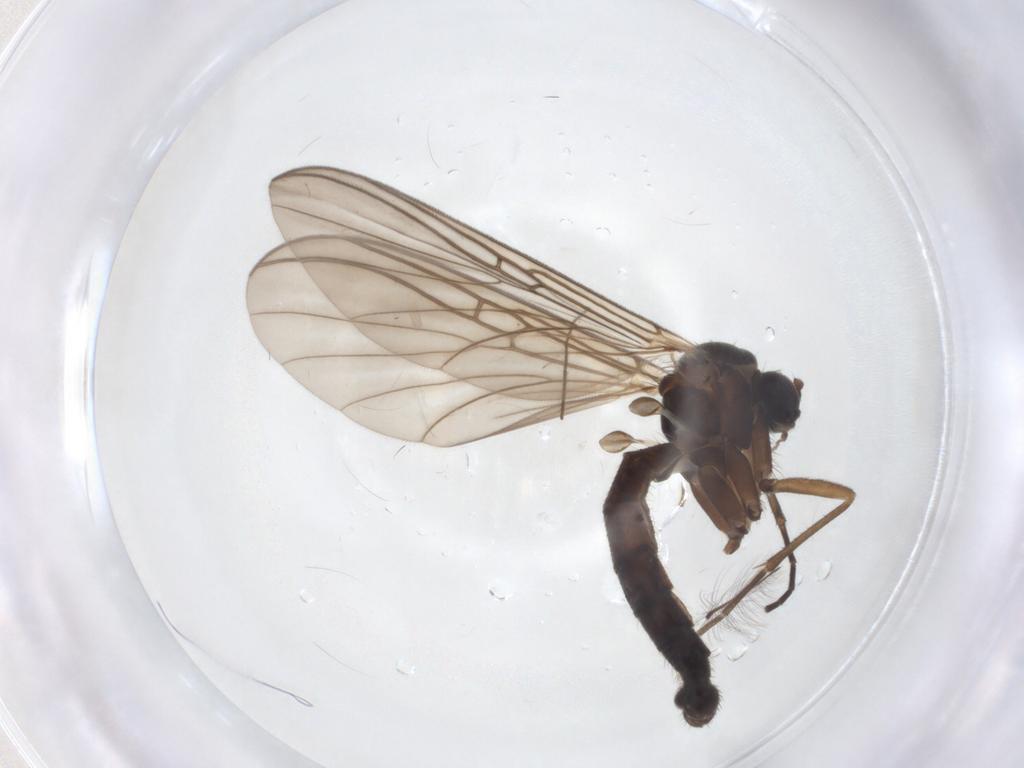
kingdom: Animalia
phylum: Arthropoda
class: Insecta
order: Diptera
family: Mycetophilidae
